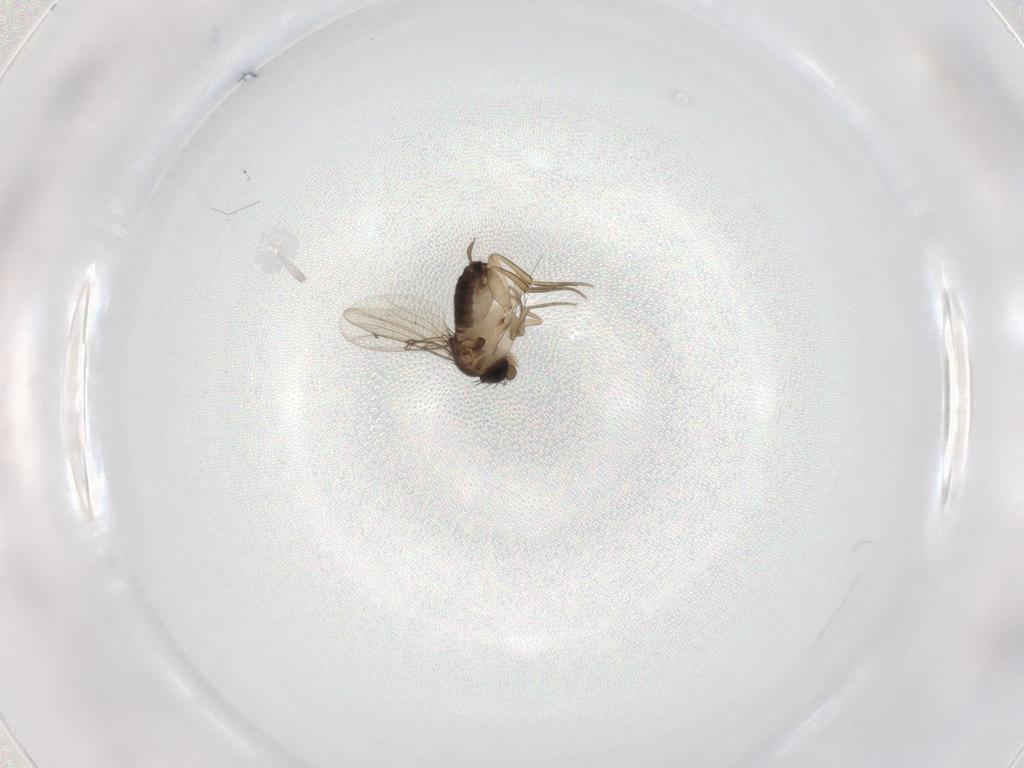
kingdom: Animalia
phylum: Arthropoda
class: Insecta
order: Diptera
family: Phoridae
